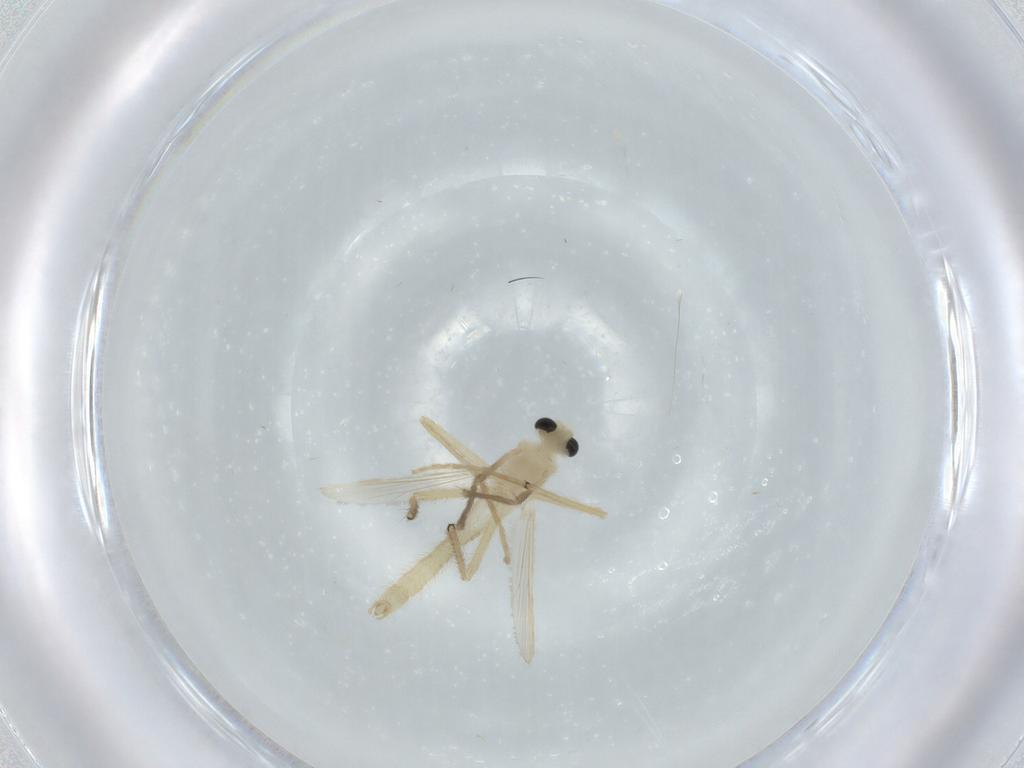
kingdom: Animalia
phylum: Arthropoda
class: Insecta
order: Diptera
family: Chironomidae
